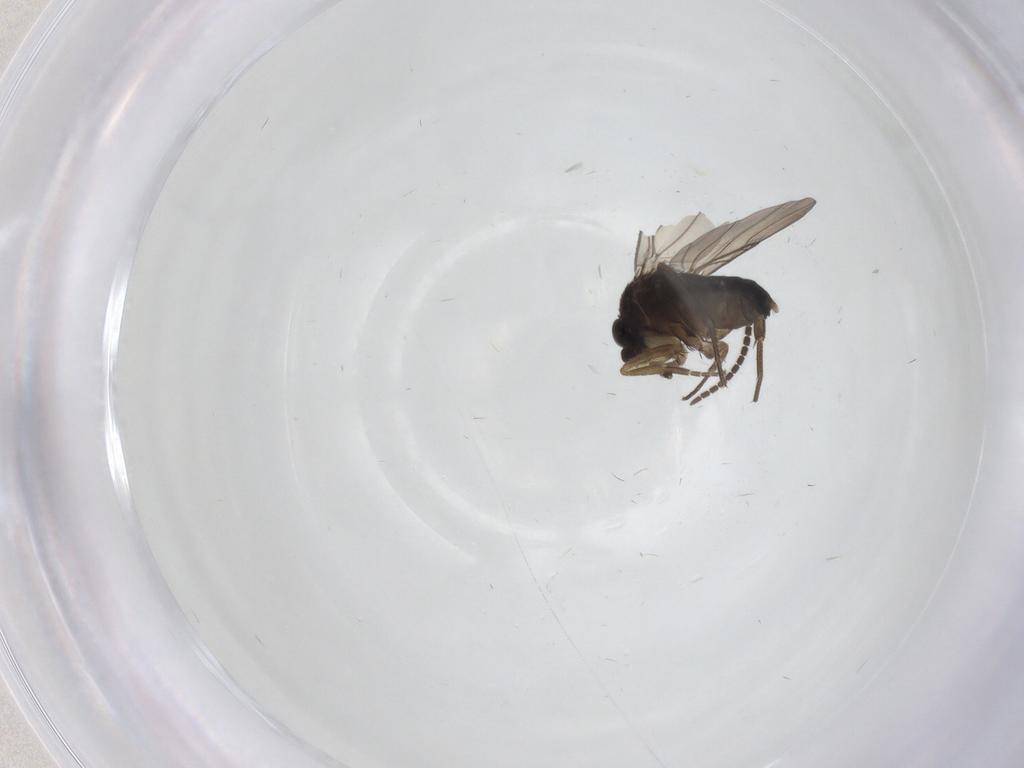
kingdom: Animalia
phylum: Arthropoda
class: Insecta
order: Diptera
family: Phoridae
